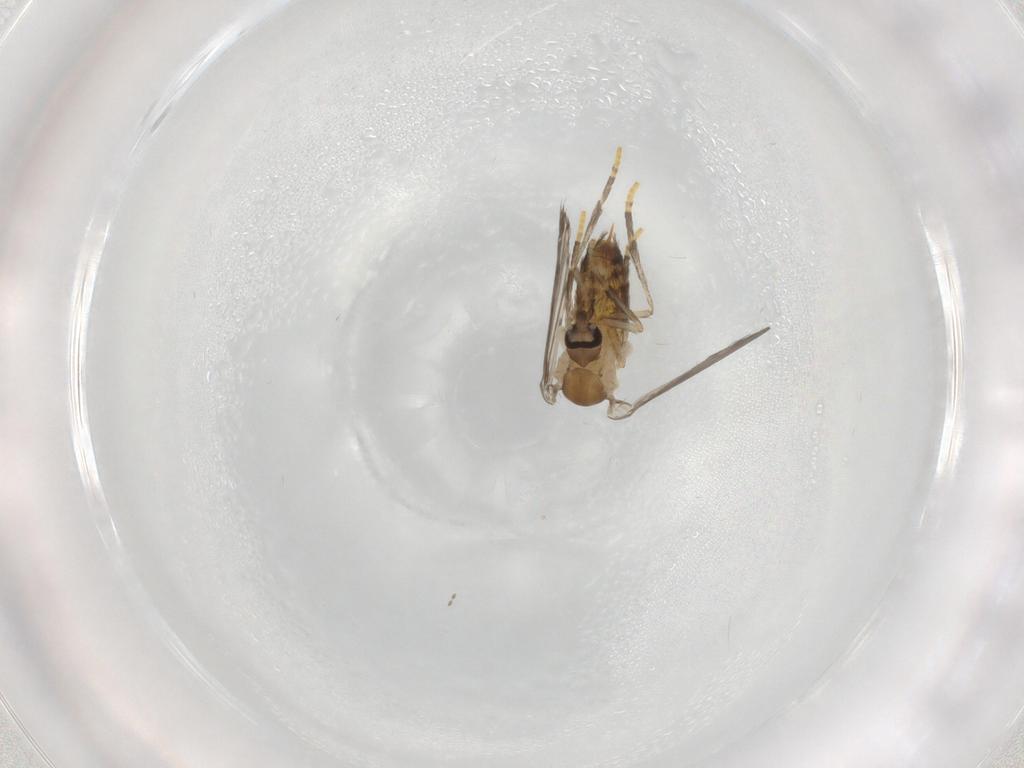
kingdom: Animalia
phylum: Arthropoda
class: Insecta
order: Diptera
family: Psychodidae
